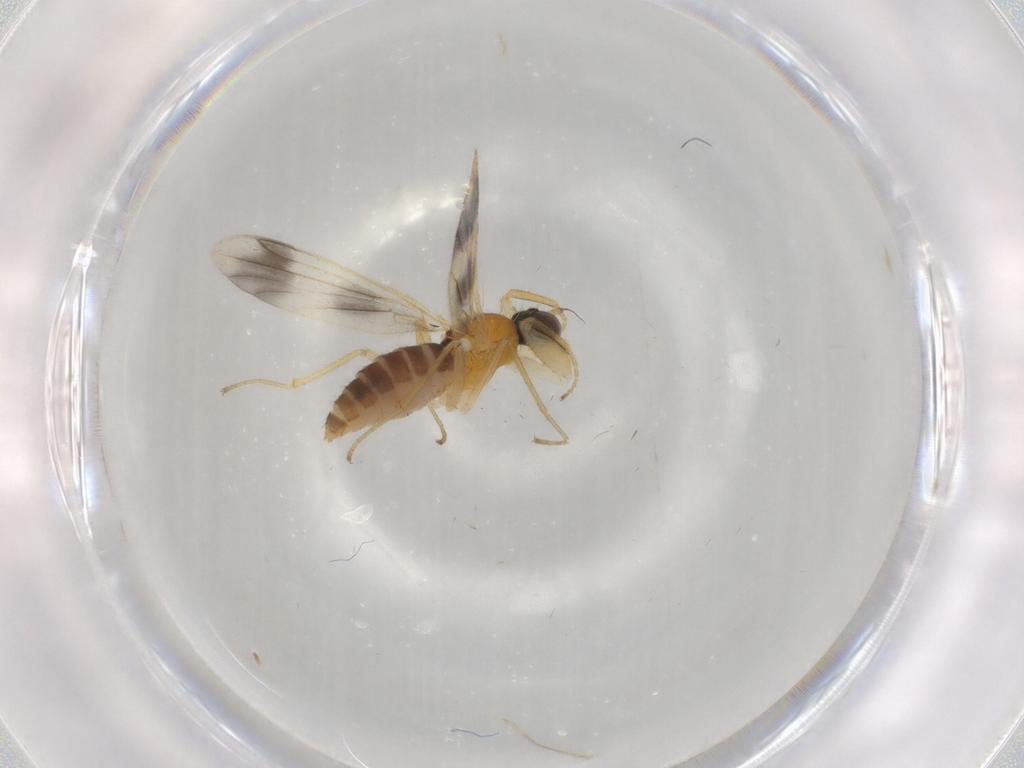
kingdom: Animalia
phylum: Arthropoda
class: Insecta
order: Diptera
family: Empididae
